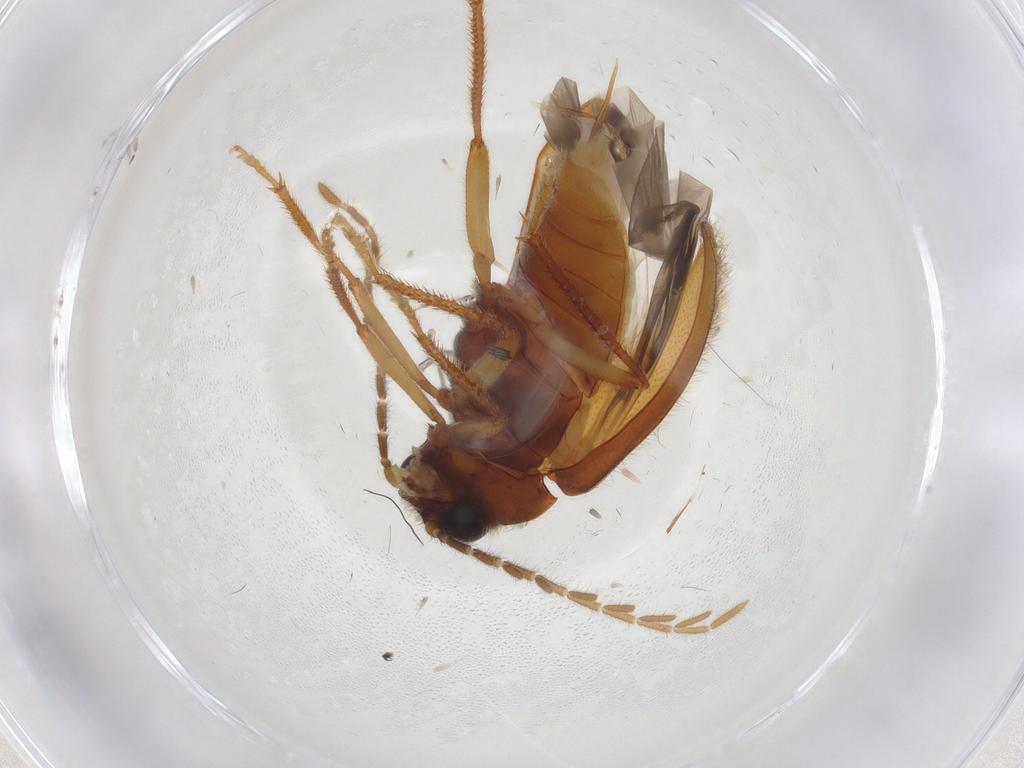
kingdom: Animalia
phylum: Arthropoda
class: Insecta
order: Coleoptera
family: Ptilodactylidae
